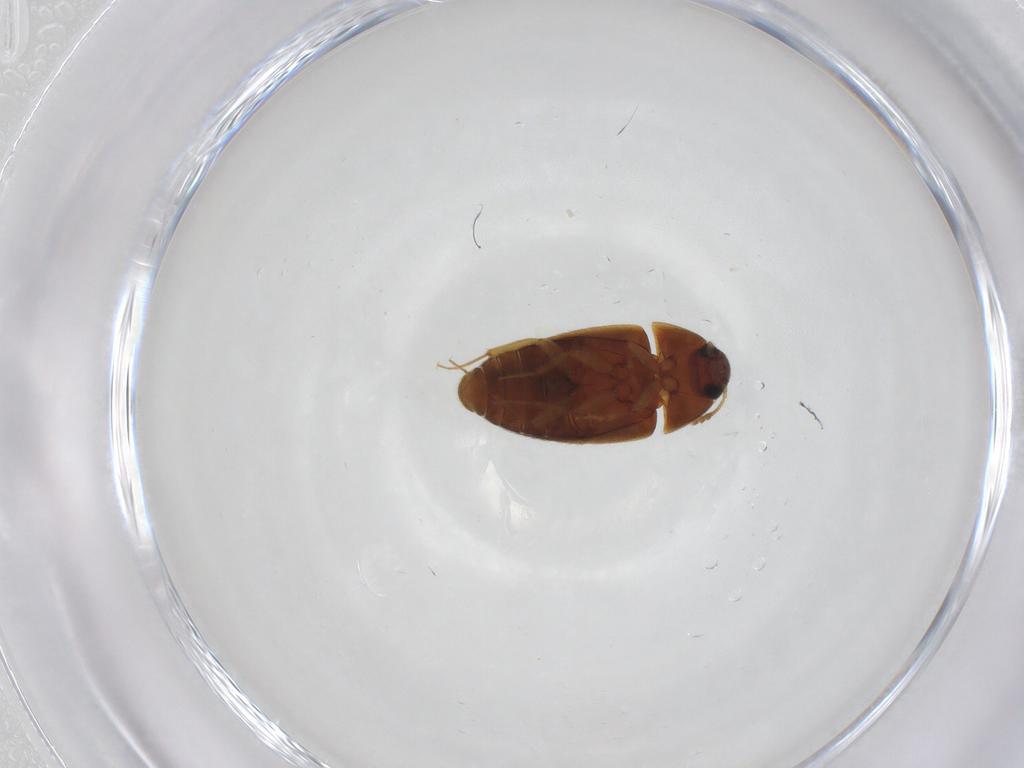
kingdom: Animalia
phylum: Arthropoda
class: Insecta
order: Coleoptera
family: Mycetophagidae
